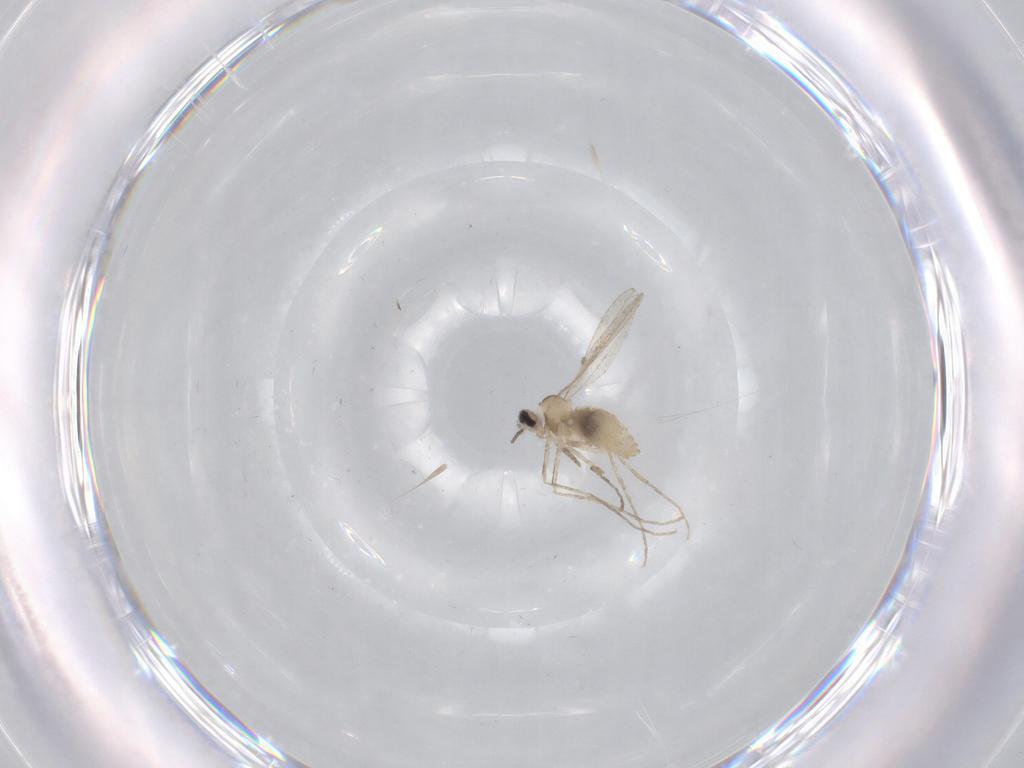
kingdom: Animalia
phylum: Arthropoda
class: Insecta
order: Diptera
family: Cecidomyiidae
